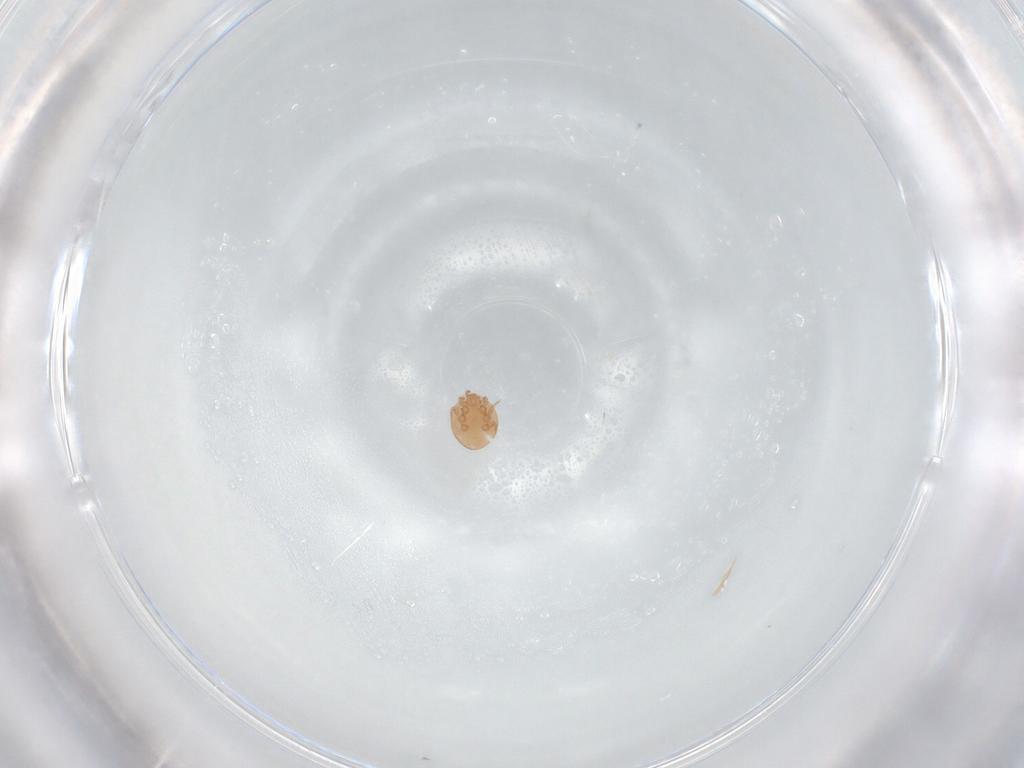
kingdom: Animalia
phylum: Arthropoda
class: Arachnida
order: Mesostigmata
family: Trematuridae
